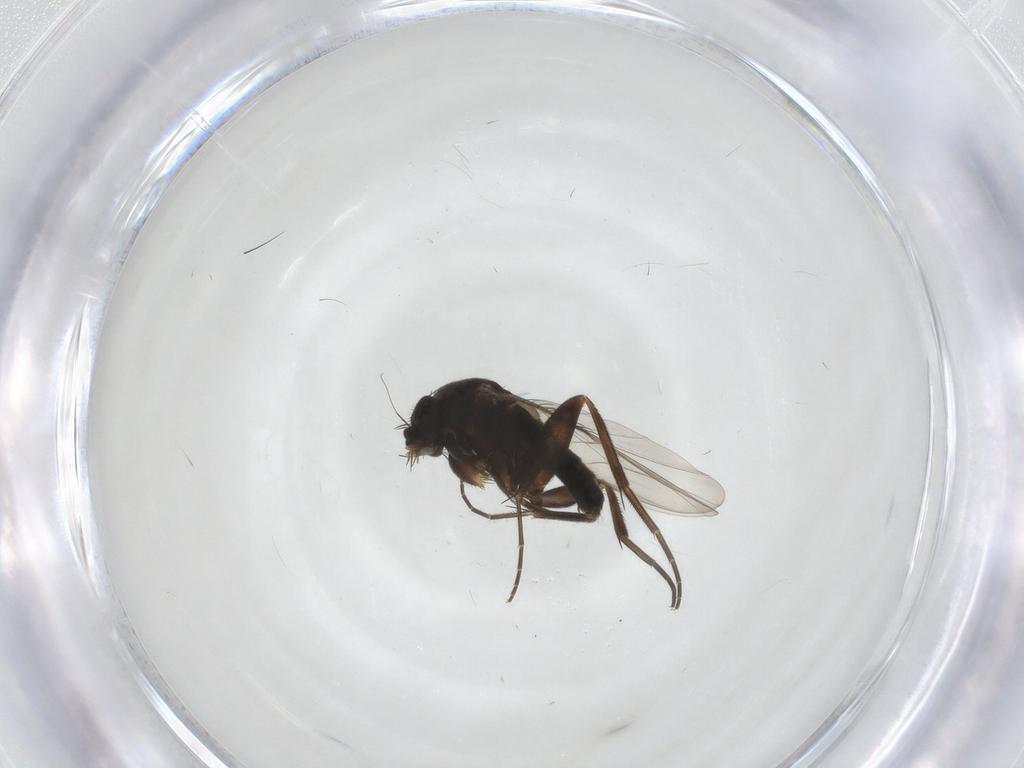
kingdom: Animalia
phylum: Arthropoda
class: Insecta
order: Diptera
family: Phoridae
